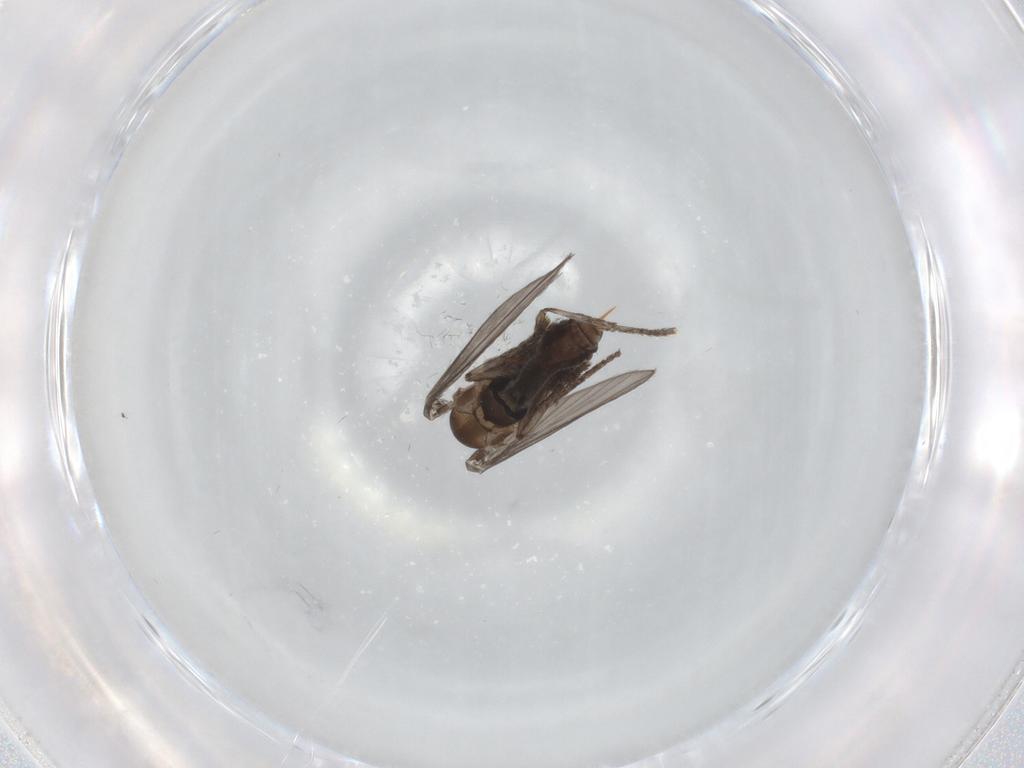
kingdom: Animalia
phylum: Arthropoda
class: Insecta
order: Diptera
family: Psychodidae
